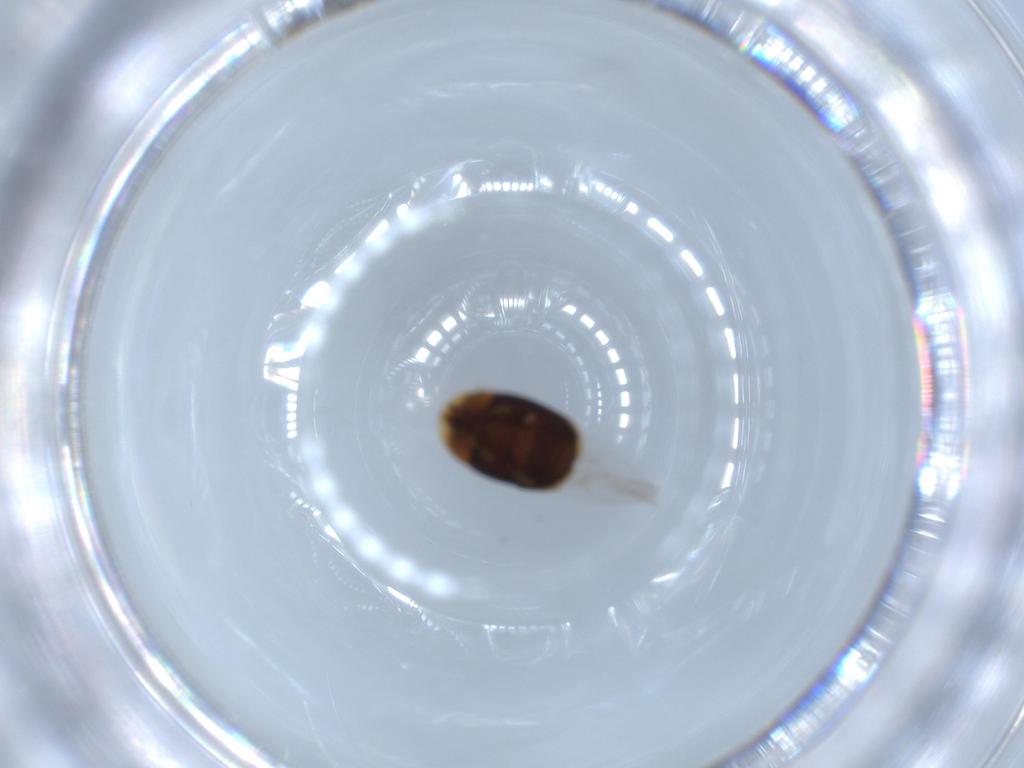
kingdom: Animalia
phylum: Arthropoda
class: Insecta
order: Coleoptera
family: Corylophidae
